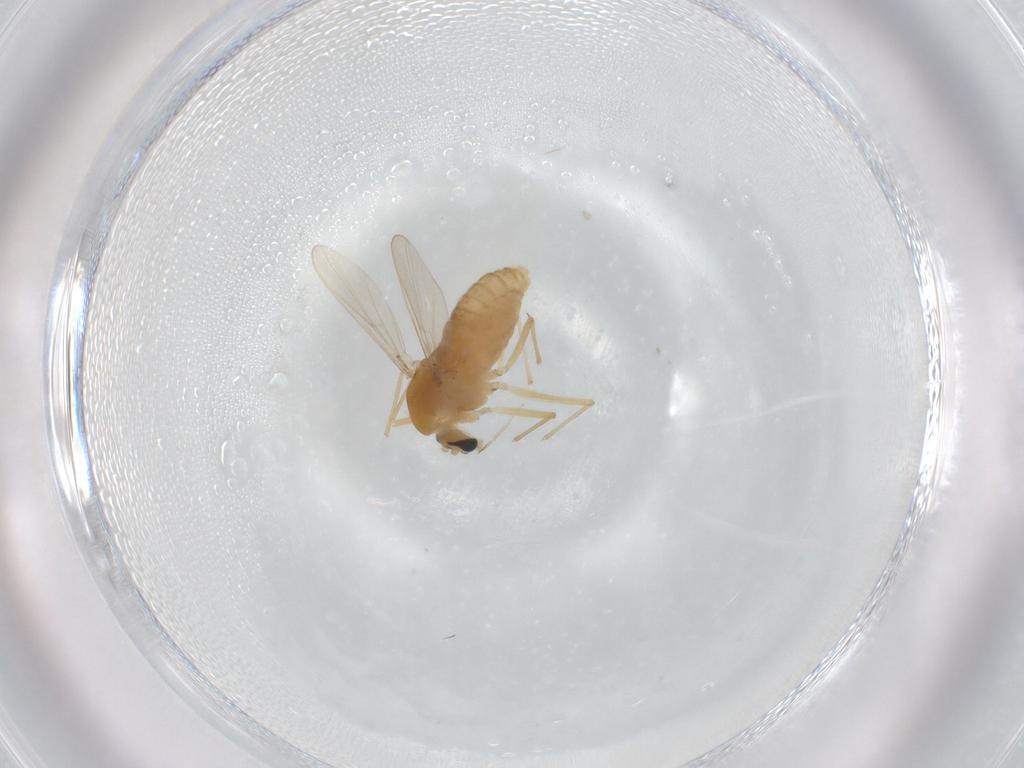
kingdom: Animalia
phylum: Arthropoda
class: Insecta
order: Diptera
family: Chironomidae
